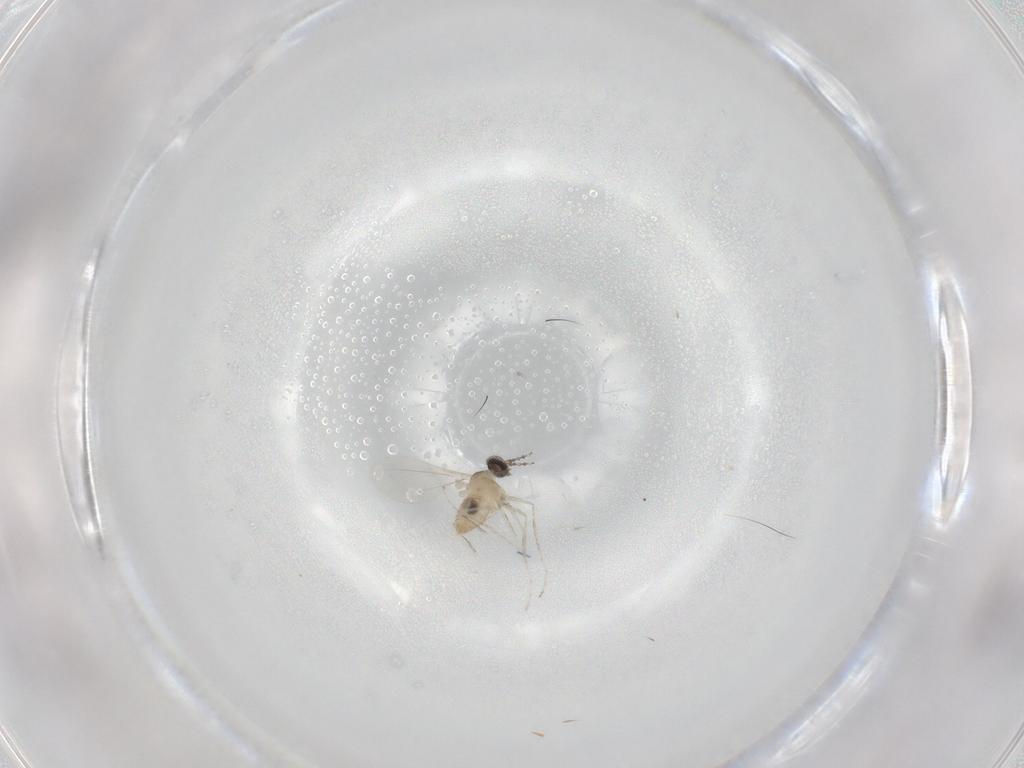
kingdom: Animalia
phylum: Arthropoda
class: Insecta
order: Diptera
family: Cecidomyiidae
